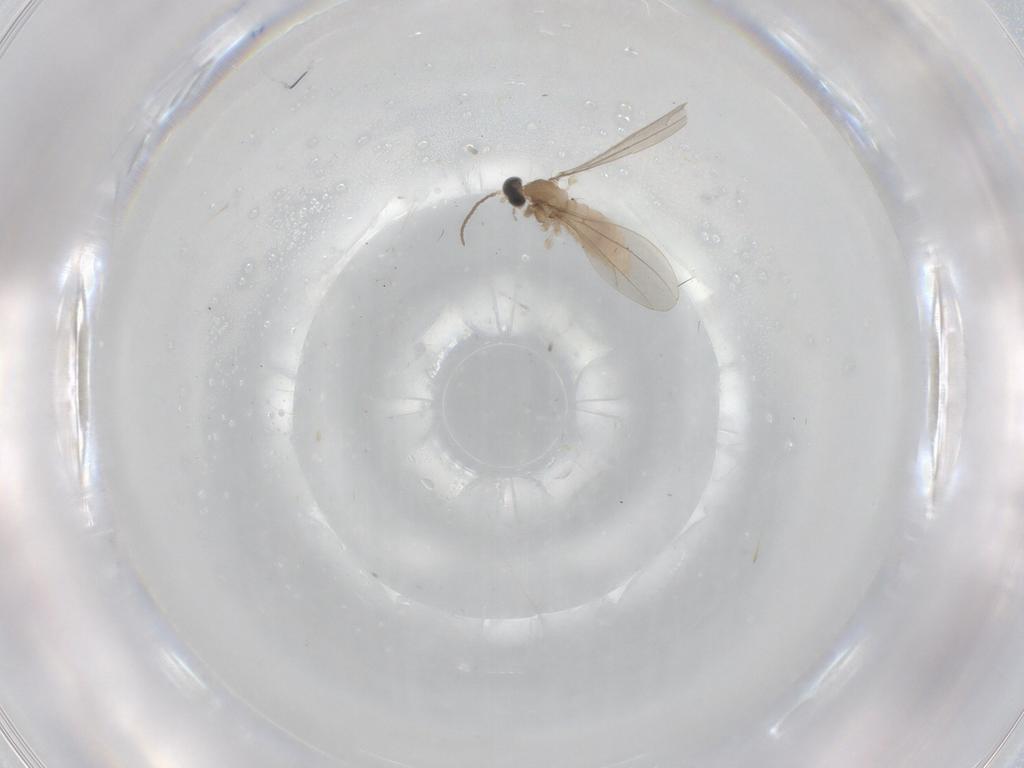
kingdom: Animalia
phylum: Arthropoda
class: Insecta
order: Diptera
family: Cecidomyiidae
